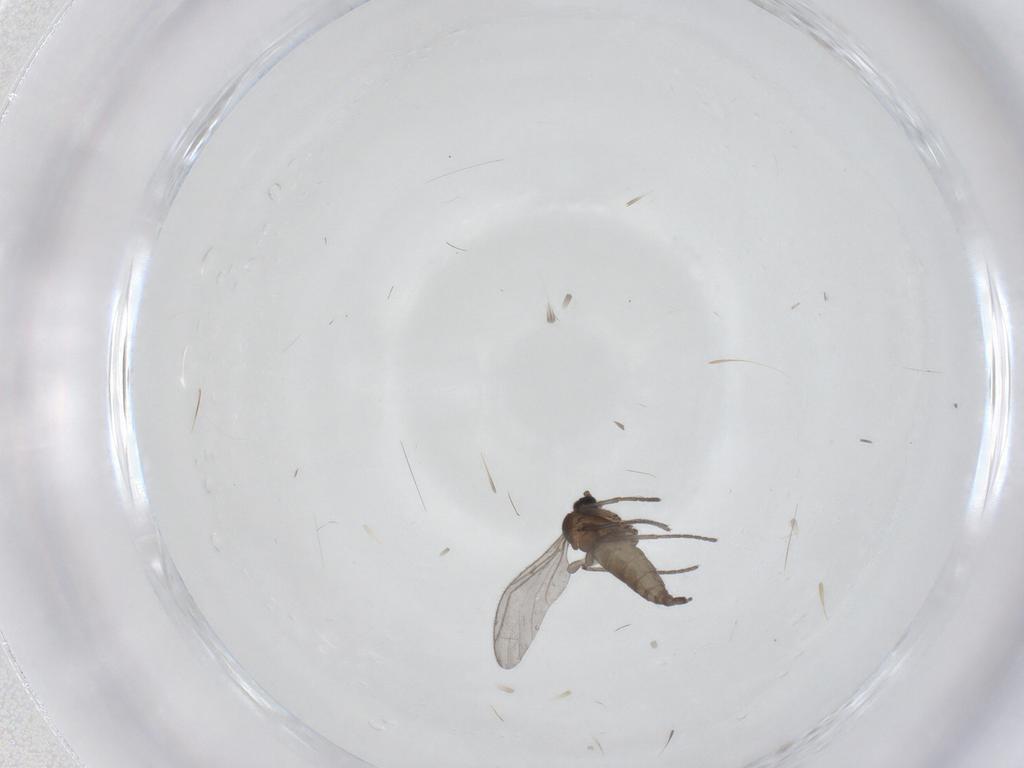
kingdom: Animalia
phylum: Arthropoda
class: Insecta
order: Diptera
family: Sciaridae
